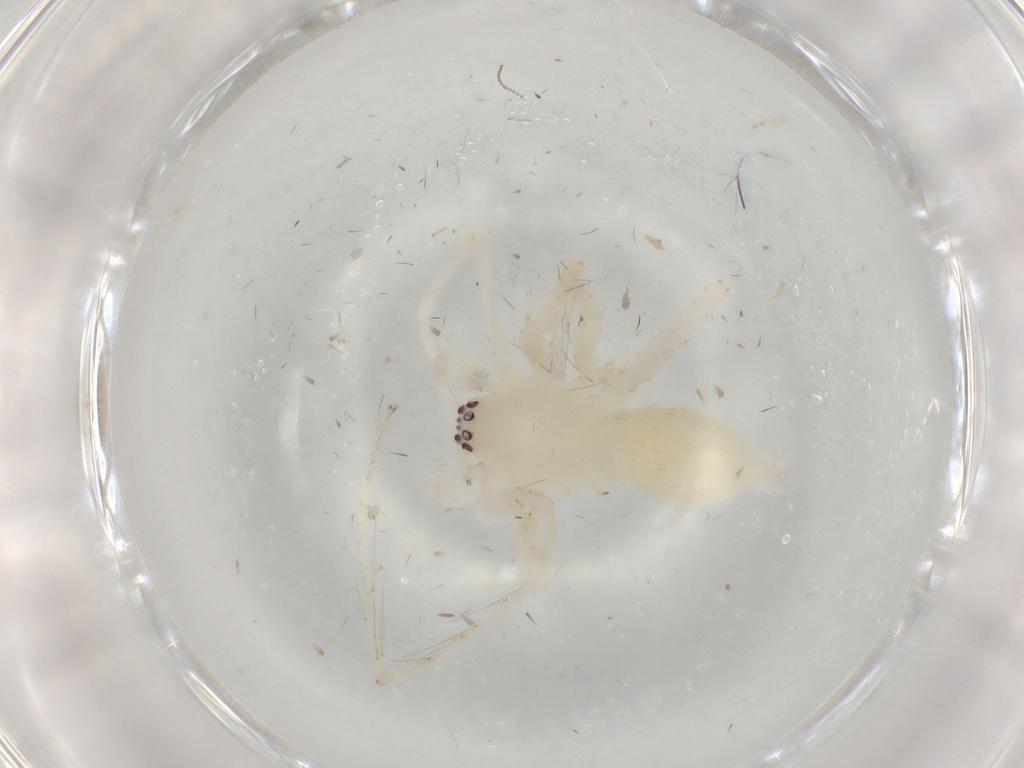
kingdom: Animalia
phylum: Arthropoda
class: Arachnida
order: Araneae
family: Anyphaenidae
